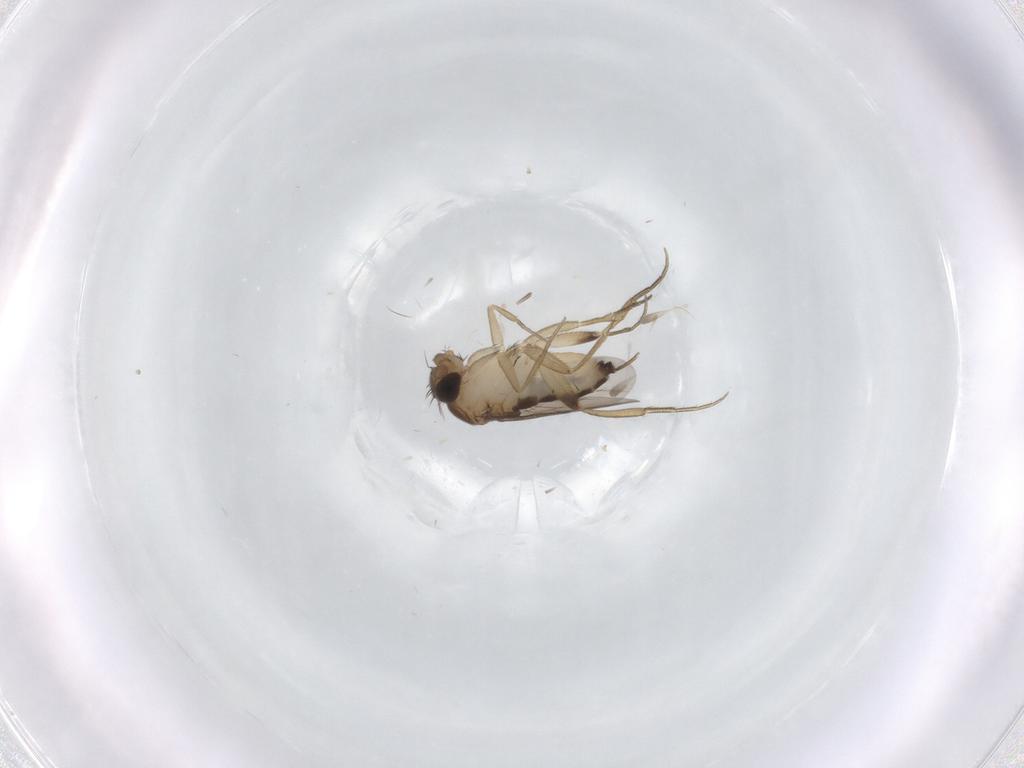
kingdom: Animalia
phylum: Arthropoda
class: Insecta
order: Diptera
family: Phoridae
